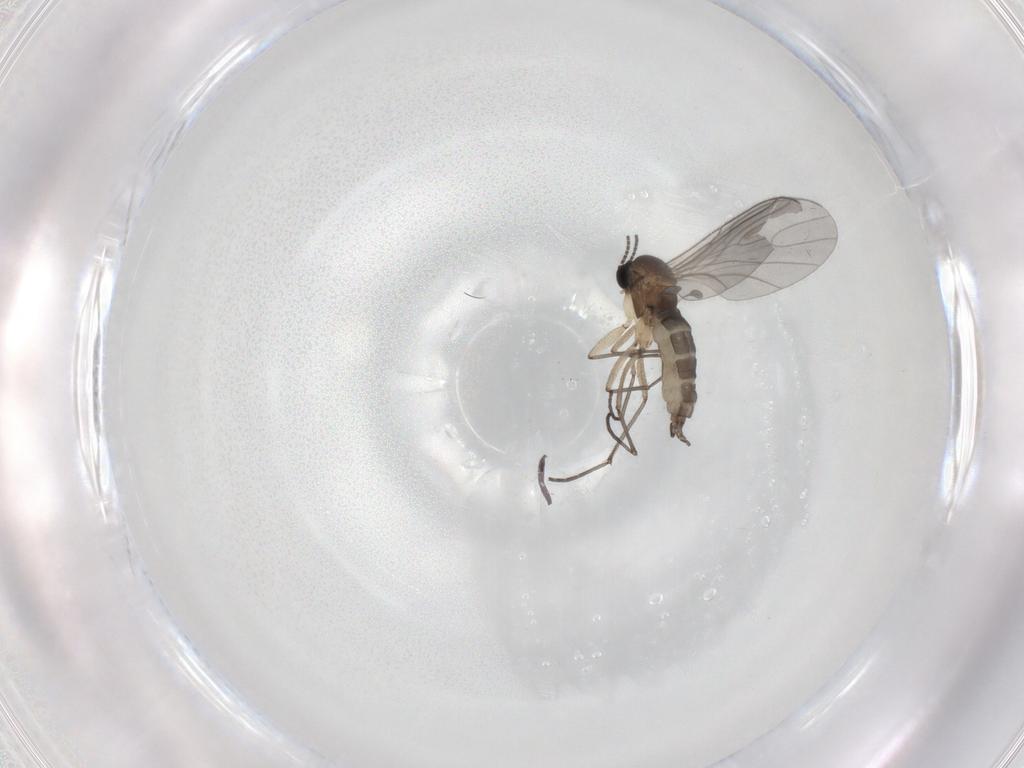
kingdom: Animalia
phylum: Arthropoda
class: Insecta
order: Diptera
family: Sciaridae
